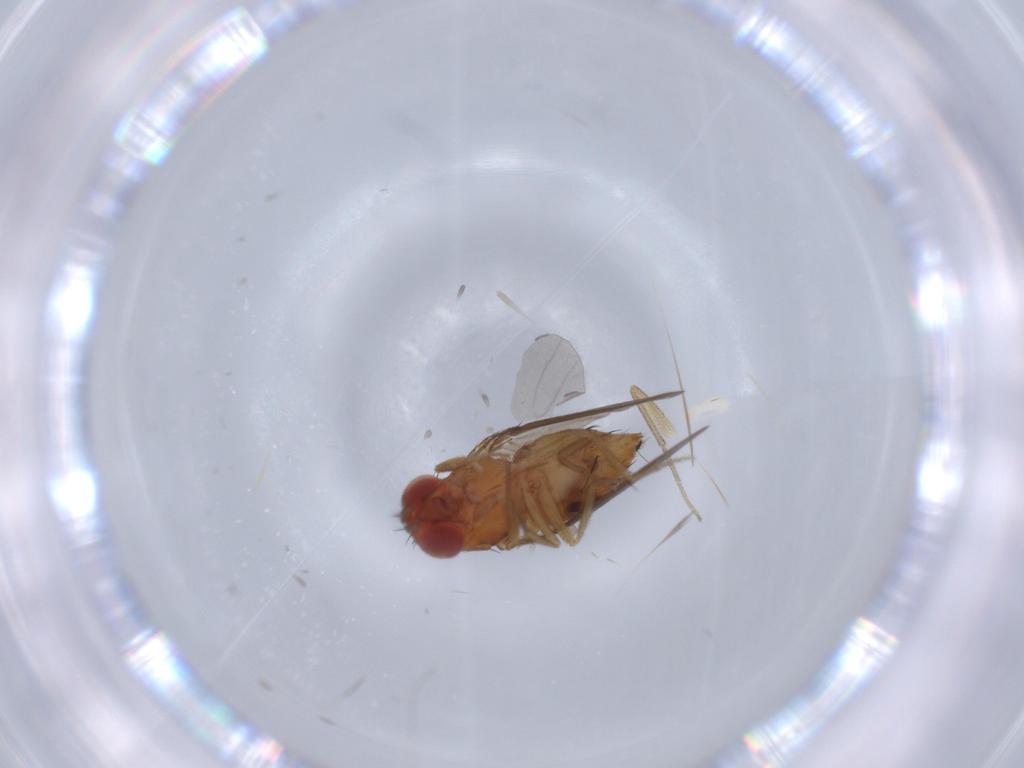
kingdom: Animalia
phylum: Arthropoda
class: Insecta
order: Diptera
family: Drosophilidae
